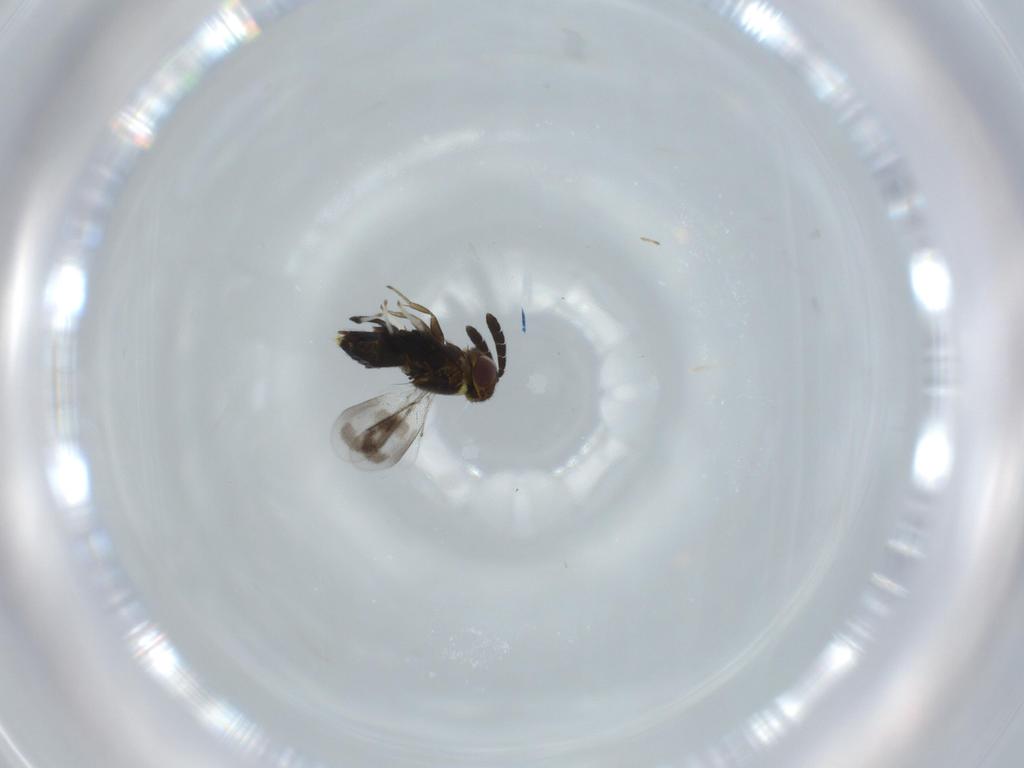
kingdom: Animalia
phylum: Arthropoda
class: Insecta
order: Hymenoptera
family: Aphelinidae
